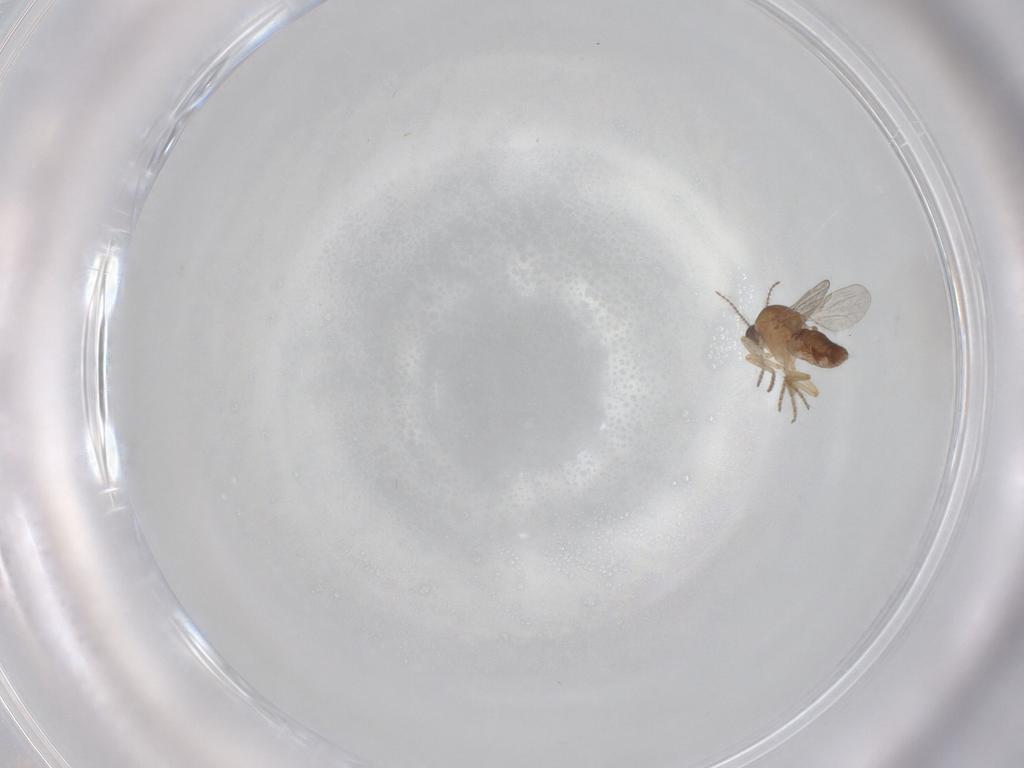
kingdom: Animalia
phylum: Arthropoda
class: Insecta
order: Diptera
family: Ceratopogonidae
